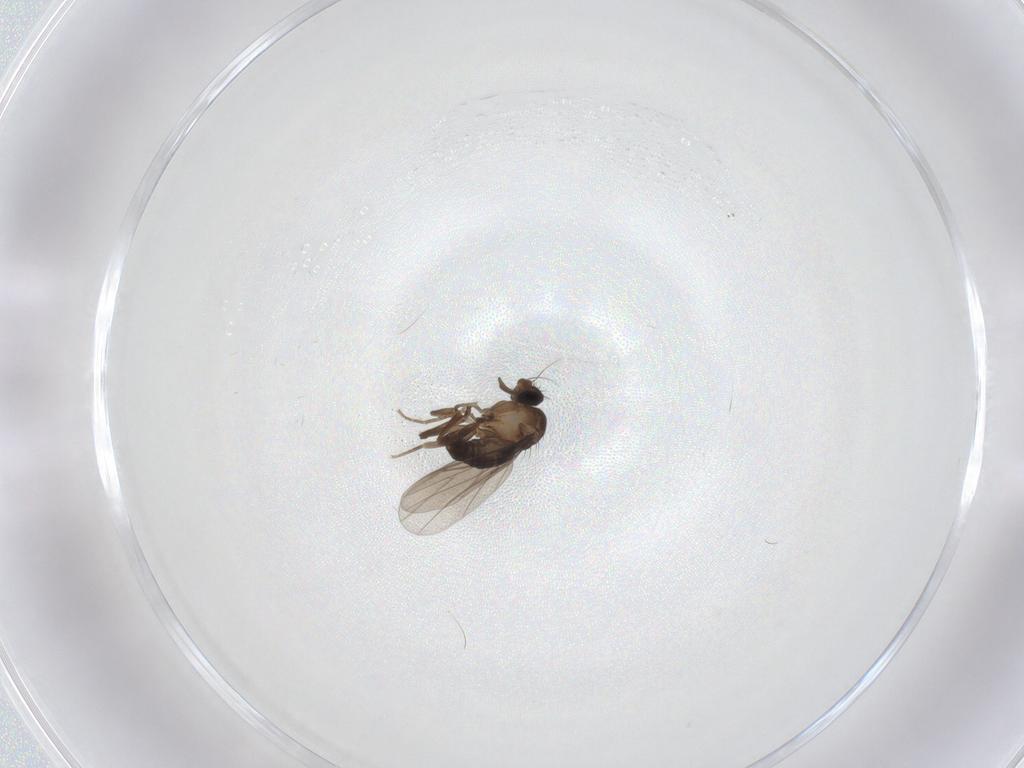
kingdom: Animalia
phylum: Arthropoda
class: Insecta
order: Diptera
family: Phoridae
